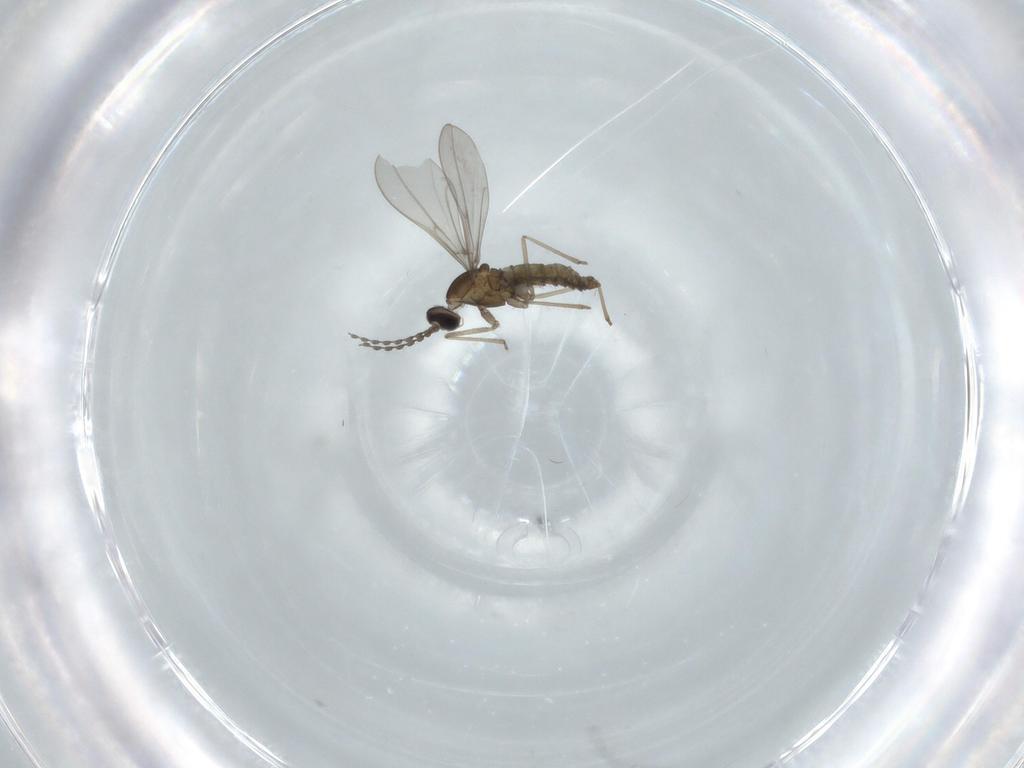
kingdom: Animalia
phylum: Arthropoda
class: Insecta
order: Diptera
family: Cecidomyiidae
